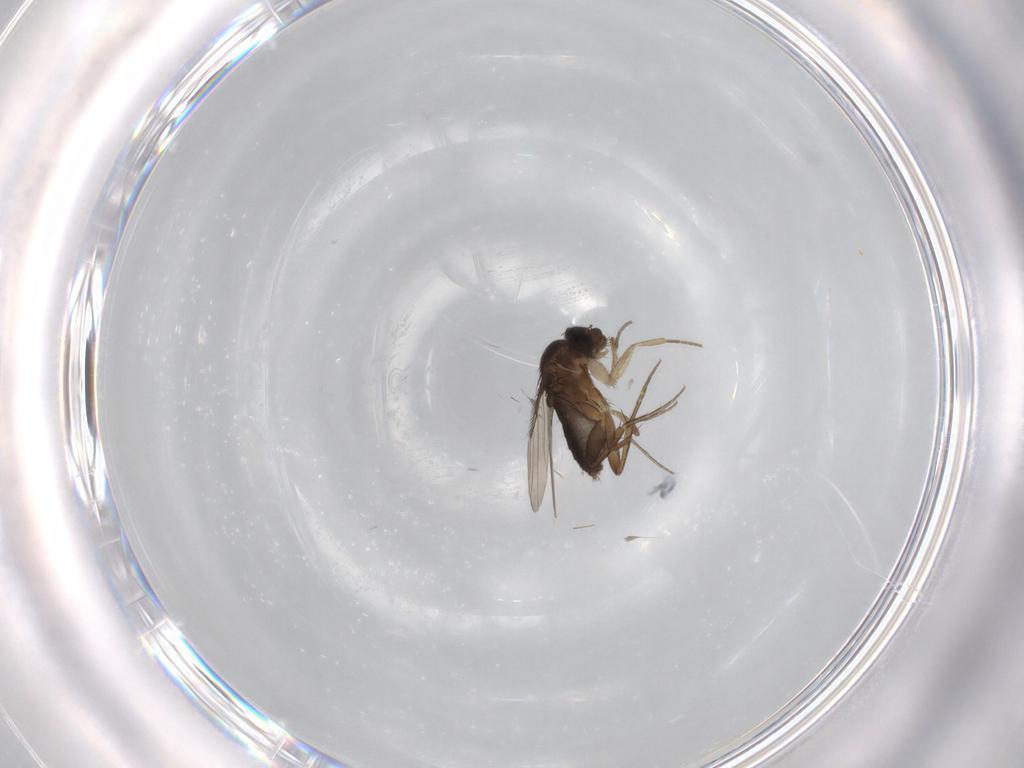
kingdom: Animalia
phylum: Arthropoda
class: Insecta
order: Diptera
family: Phoridae
